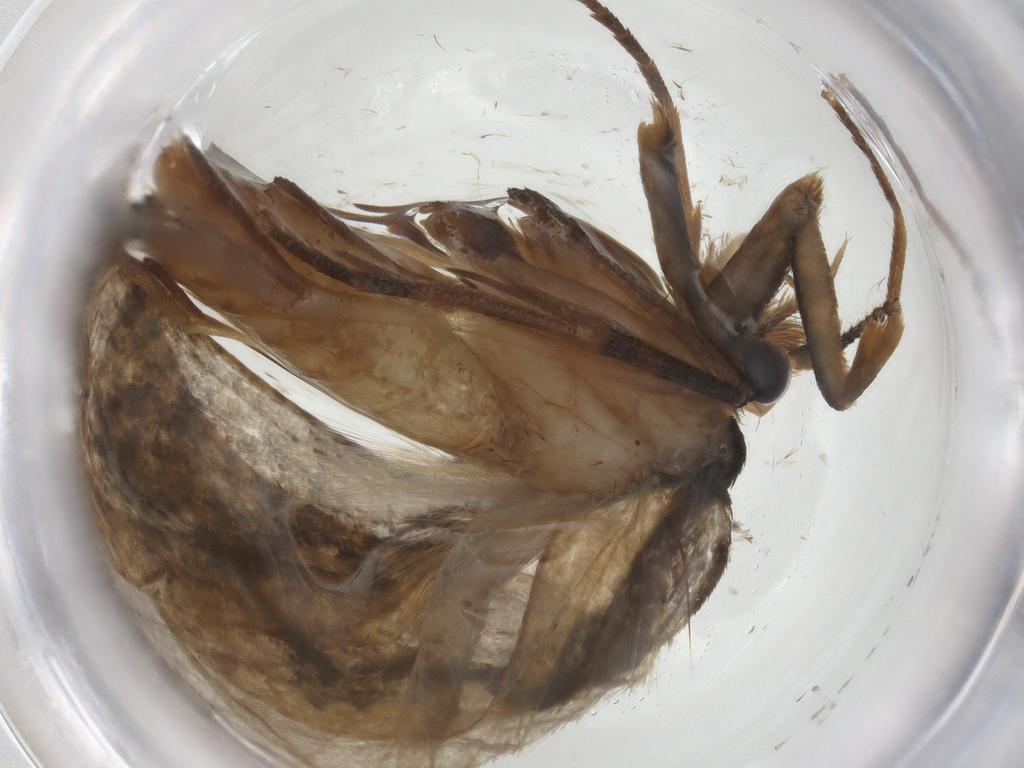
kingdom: Animalia
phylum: Arthropoda
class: Insecta
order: Lepidoptera
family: Tineidae
